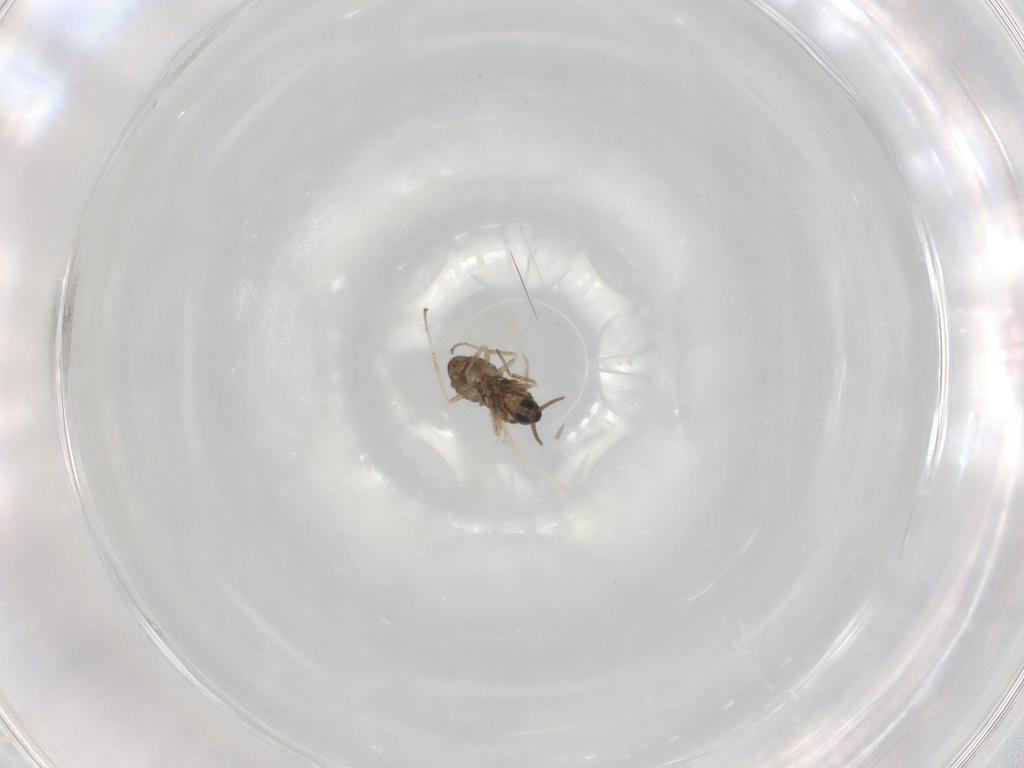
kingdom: Animalia
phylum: Arthropoda
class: Insecta
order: Diptera
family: Cecidomyiidae
